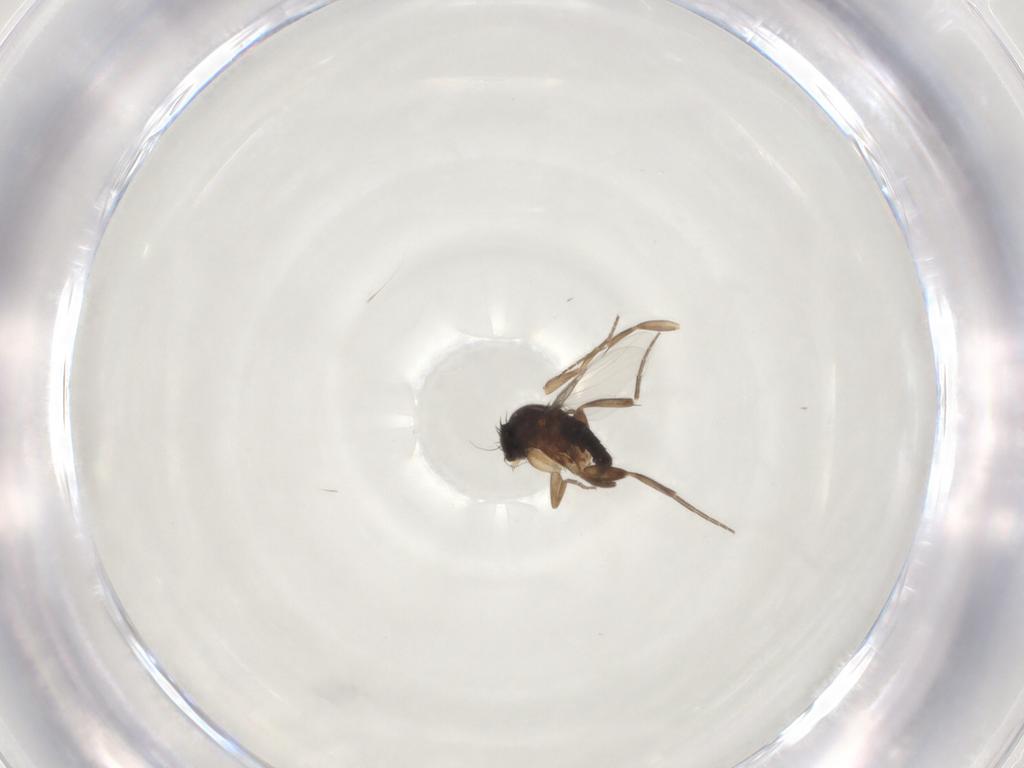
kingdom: Animalia
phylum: Arthropoda
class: Insecta
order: Diptera
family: Phoridae
